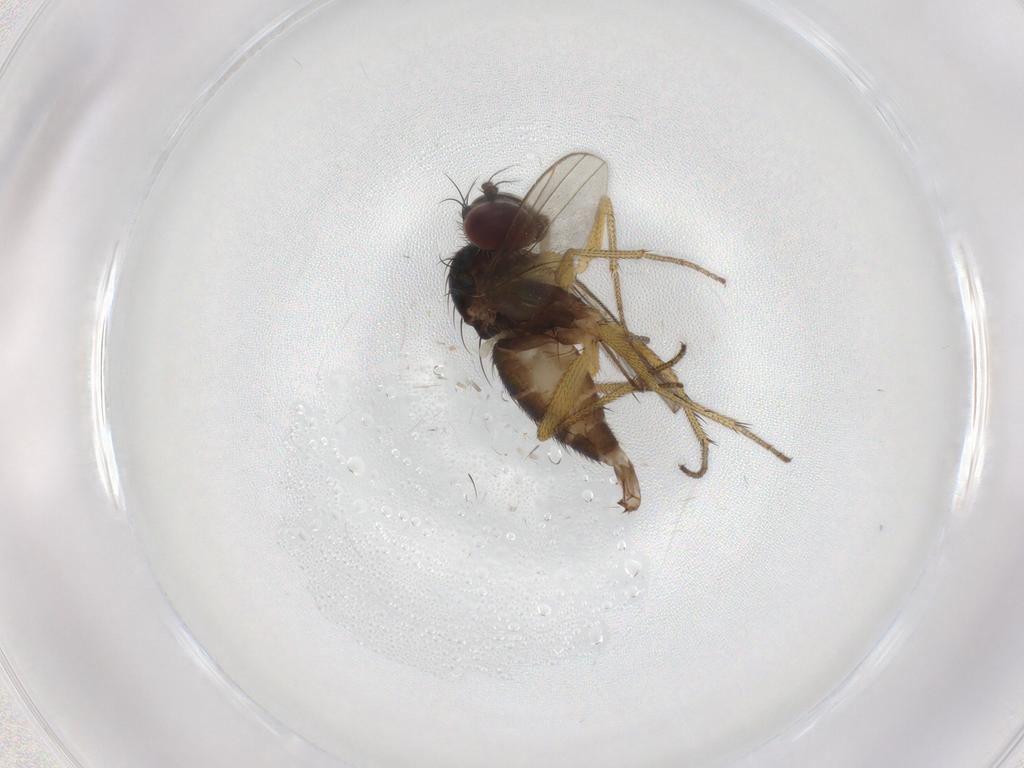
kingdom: Animalia
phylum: Arthropoda
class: Insecta
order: Diptera
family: Psychodidae
